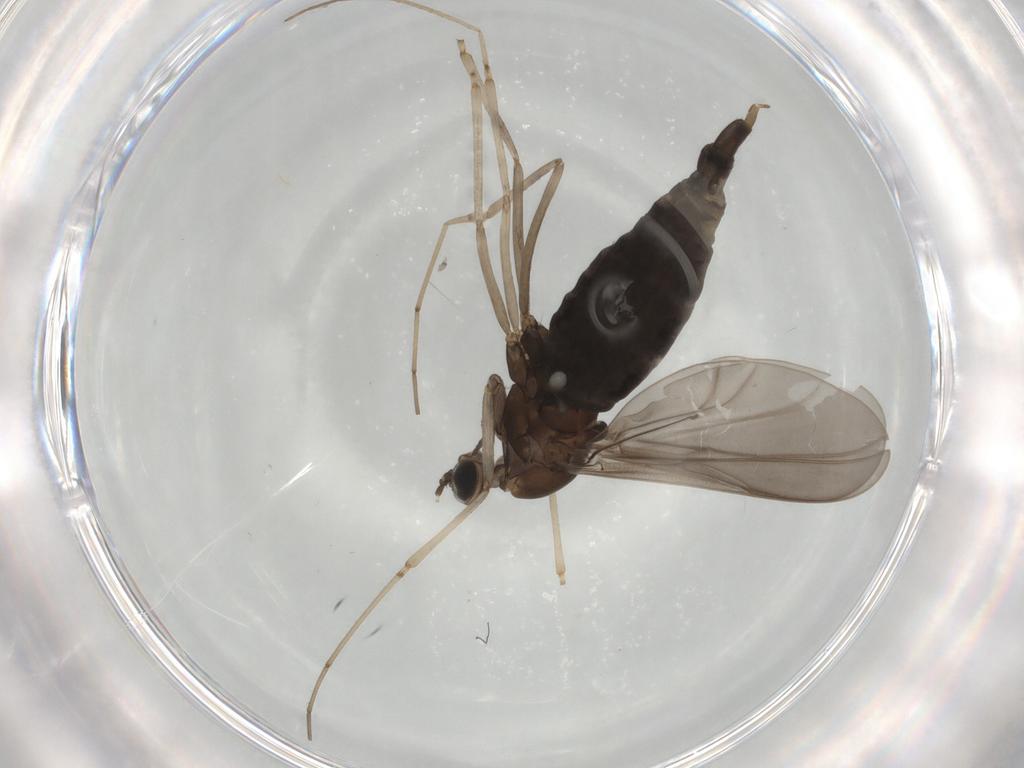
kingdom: Animalia
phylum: Arthropoda
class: Insecta
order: Diptera
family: Cecidomyiidae
